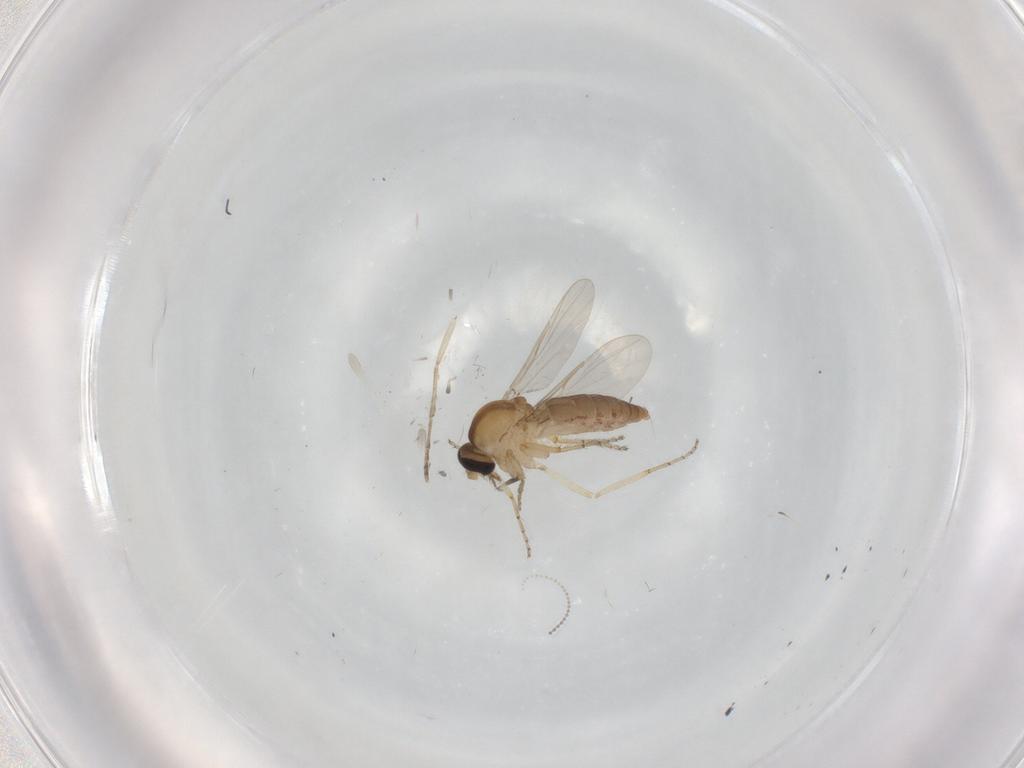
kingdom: Animalia
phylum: Arthropoda
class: Insecta
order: Diptera
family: Ceratopogonidae
